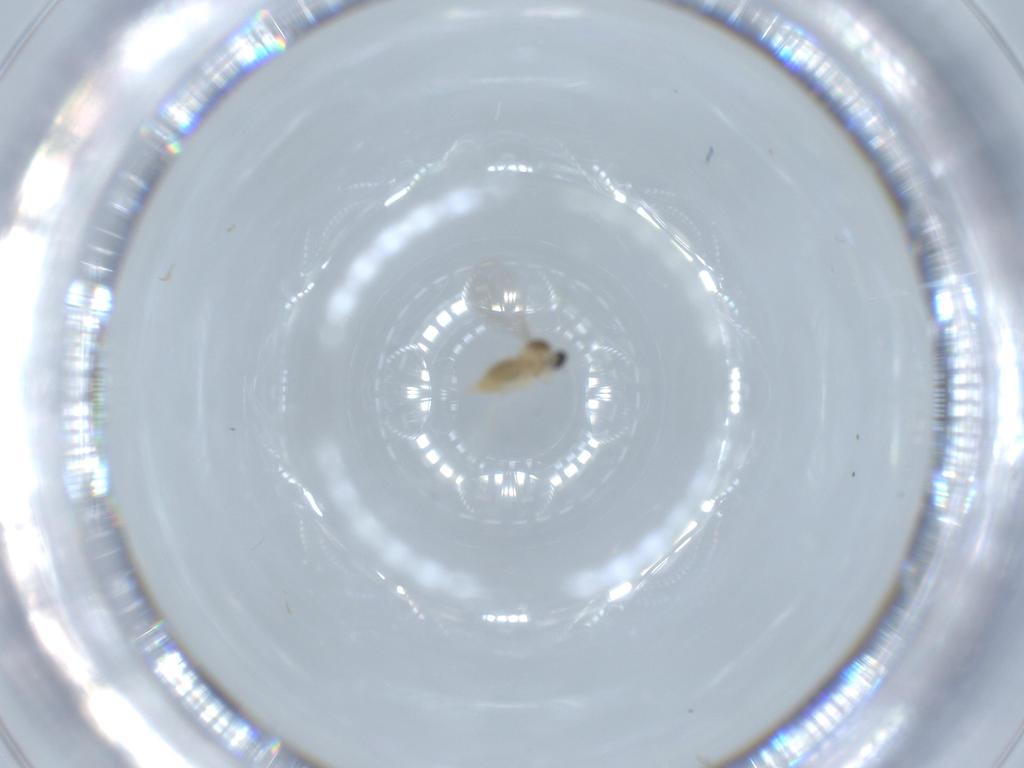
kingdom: Animalia
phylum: Arthropoda
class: Insecta
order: Diptera
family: Cecidomyiidae
